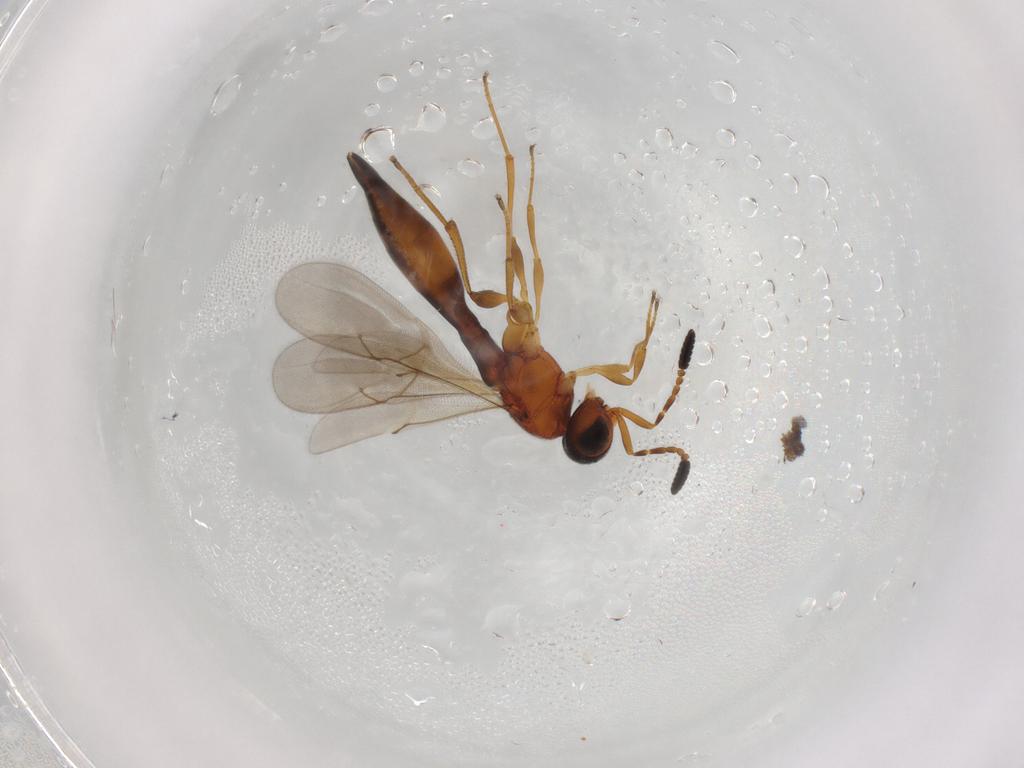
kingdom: Animalia
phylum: Arthropoda
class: Insecta
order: Hymenoptera
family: Scelionidae
